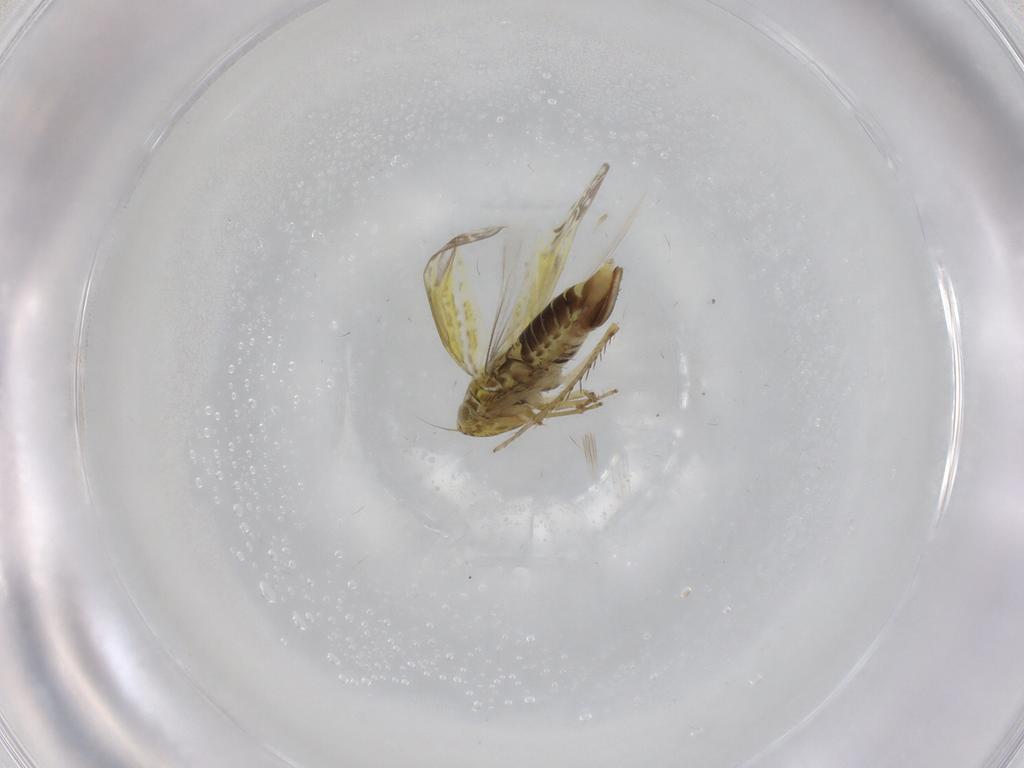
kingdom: Animalia
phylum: Arthropoda
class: Insecta
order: Hemiptera
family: Cicadellidae
